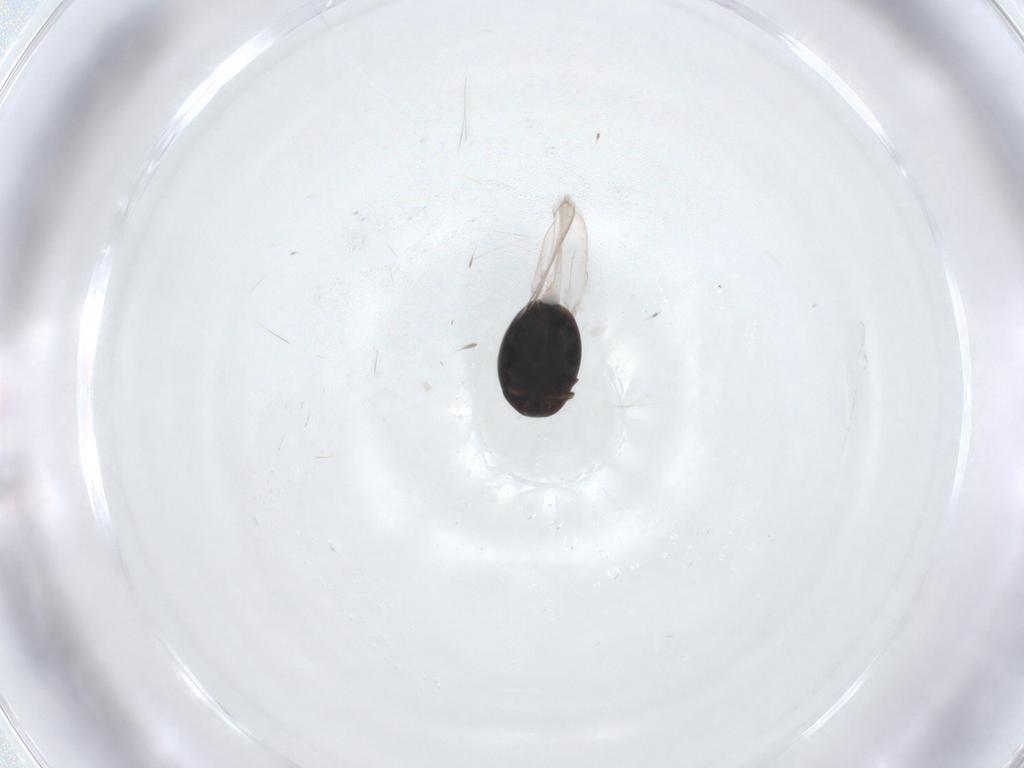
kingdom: Animalia
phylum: Arthropoda
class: Insecta
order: Coleoptera
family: Corylophidae
